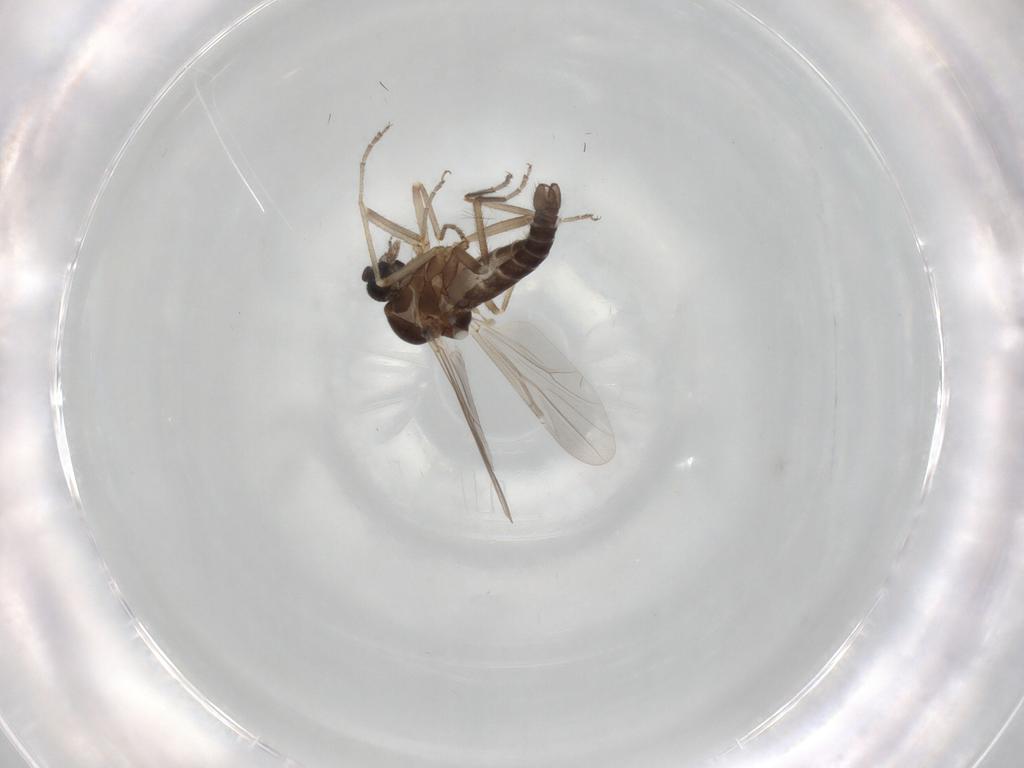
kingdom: Animalia
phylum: Arthropoda
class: Insecta
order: Diptera
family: Ceratopogonidae
